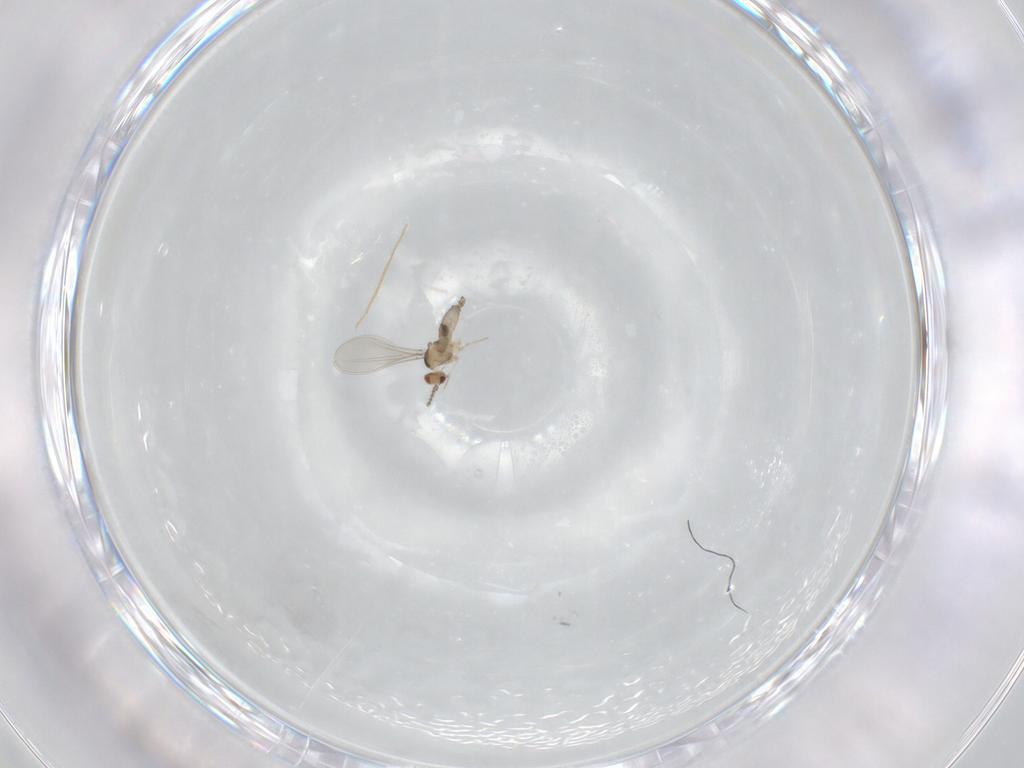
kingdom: Animalia
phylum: Arthropoda
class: Insecta
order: Diptera
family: Cecidomyiidae
